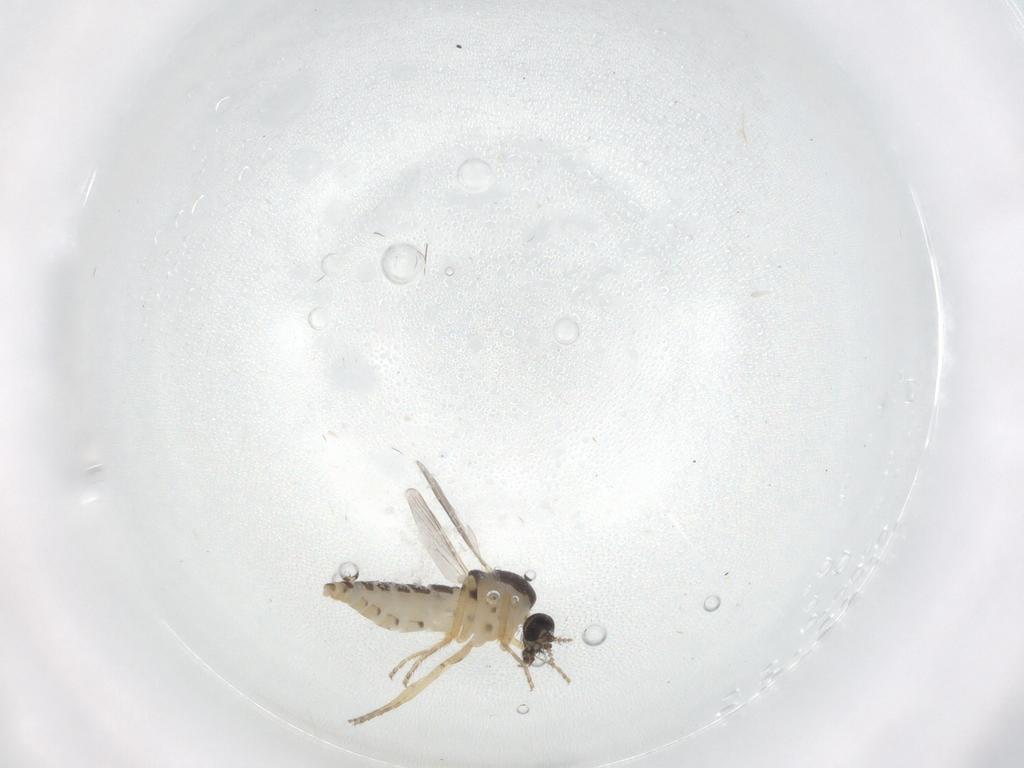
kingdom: Animalia
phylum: Arthropoda
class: Insecta
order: Diptera
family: Ceratopogonidae
